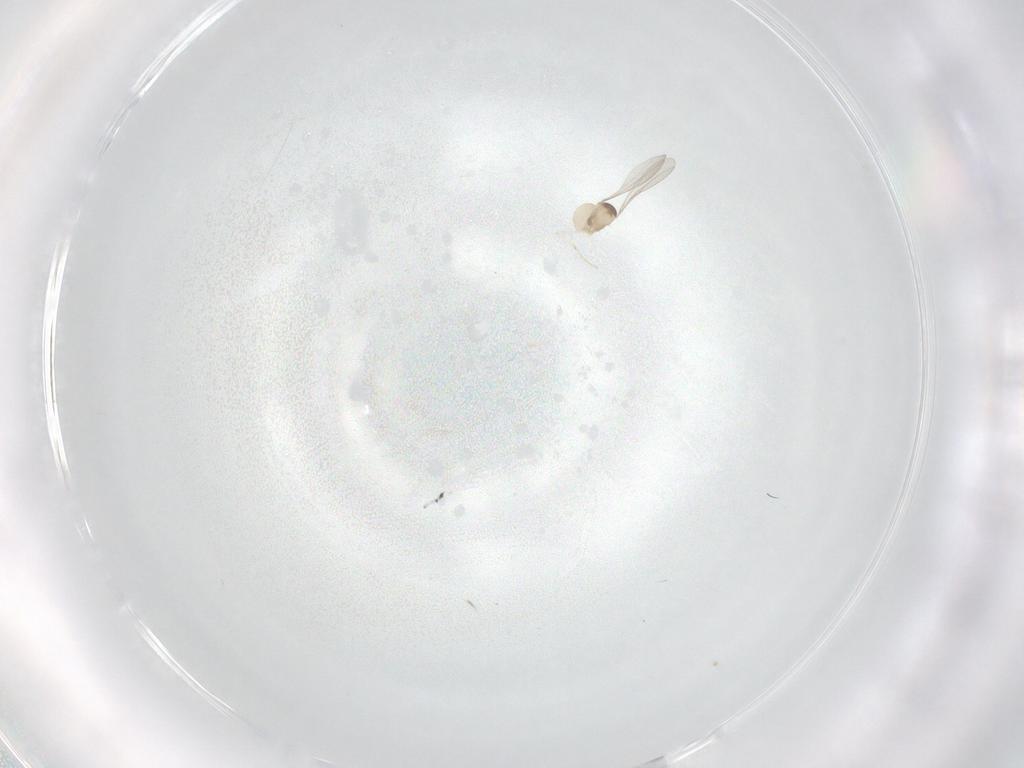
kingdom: Animalia
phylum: Arthropoda
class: Insecta
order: Diptera
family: Cecidomyiidae
